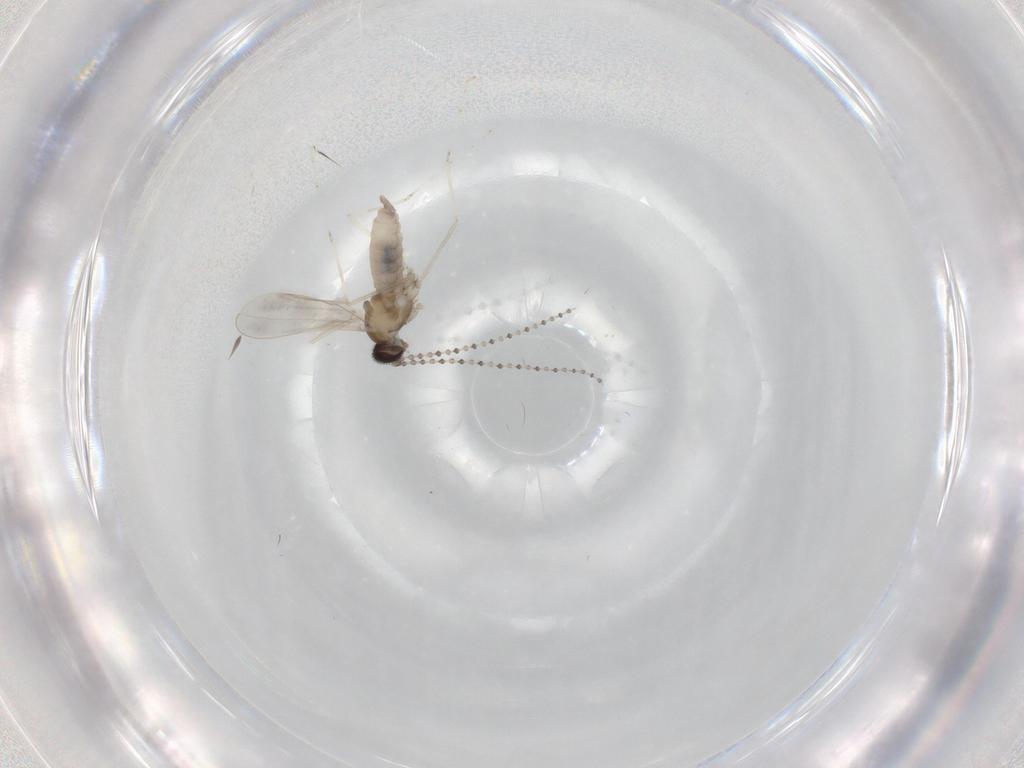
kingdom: Animalia
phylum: Arthropoda
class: Insecta
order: Diptera
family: Cecidomyiidae
